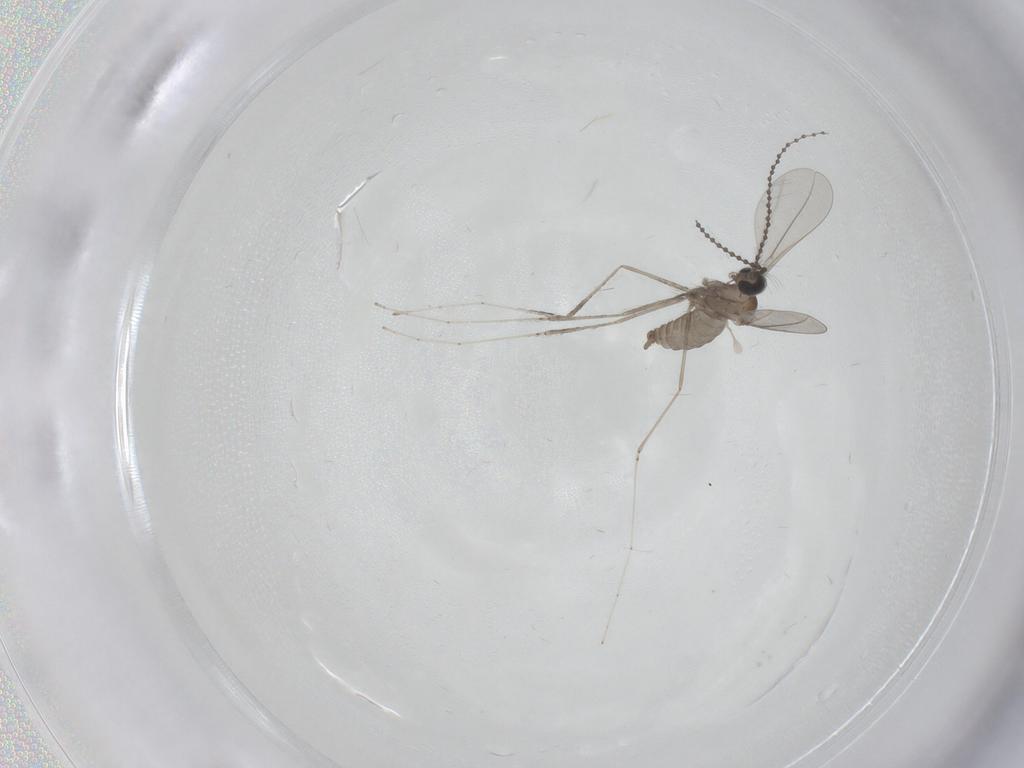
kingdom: Animalia
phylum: Arthropoda
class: Insecta
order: Diptera
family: Cecidomyiidae
